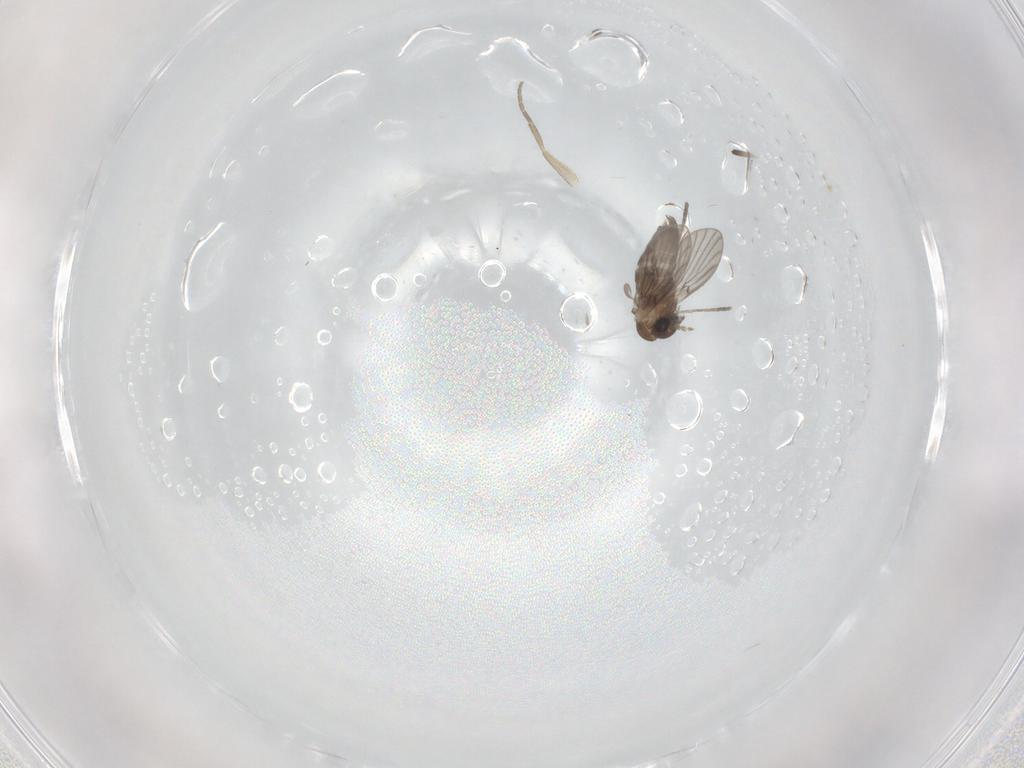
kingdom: Animalia
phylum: Arthropoda
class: Insecta
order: Diptera
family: Phoridae
